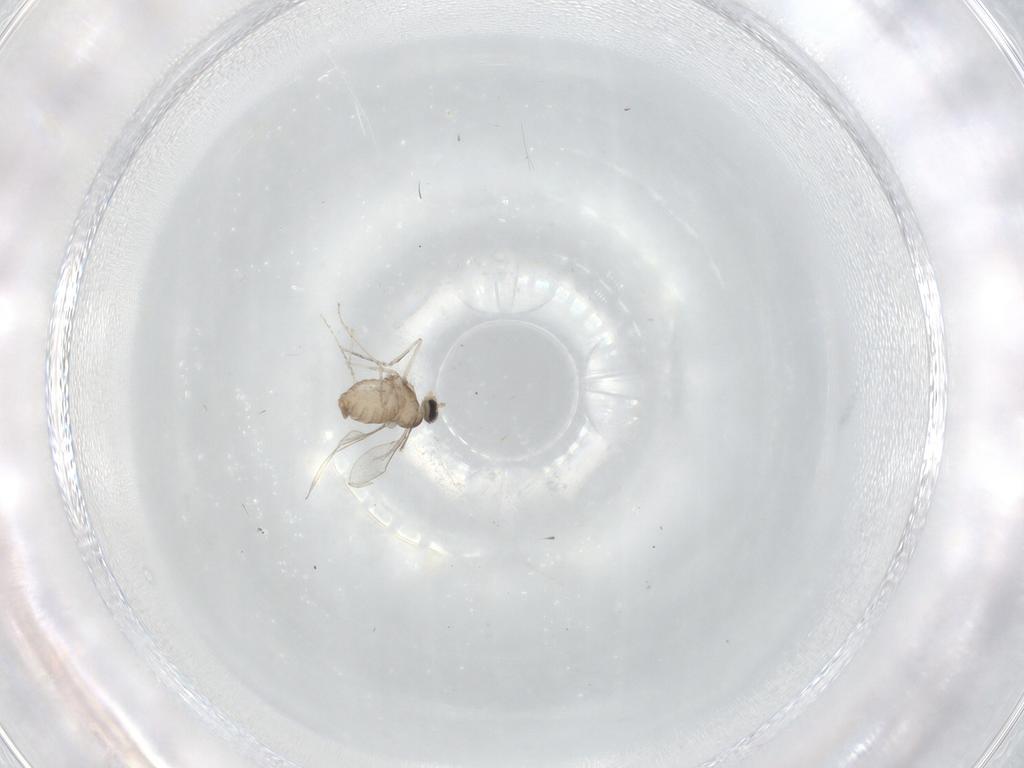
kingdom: Animalia
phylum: Arthropoda
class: Insecta
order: Diptera
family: Cecidomyiidae
